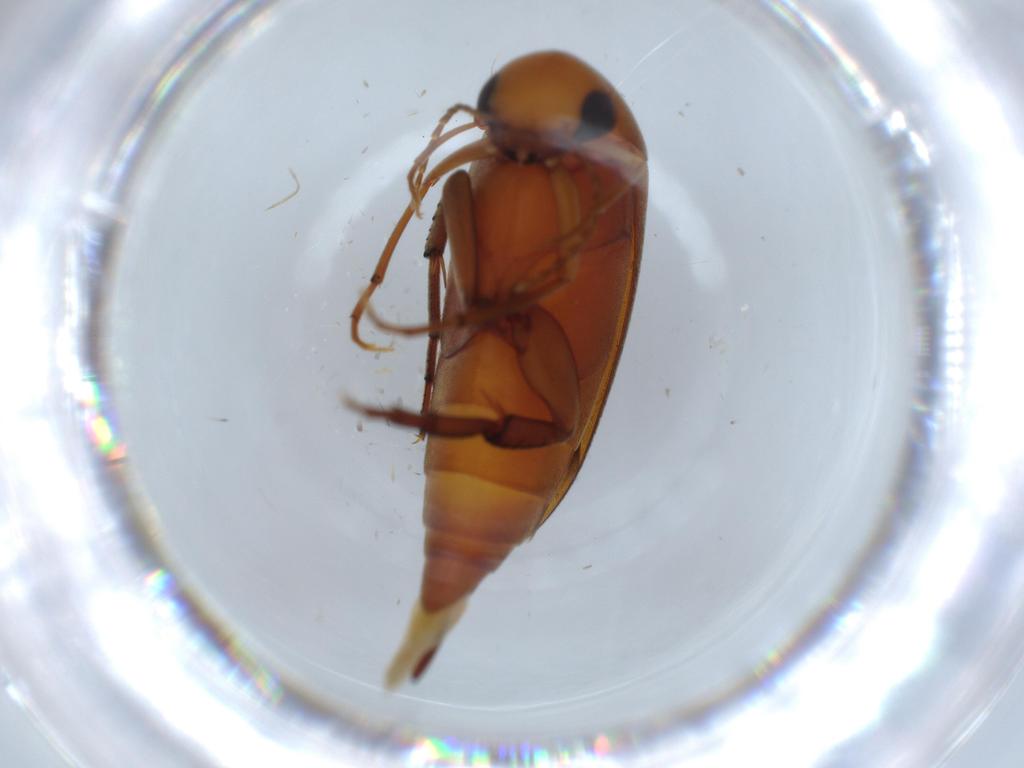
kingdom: Animalia
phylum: Arthropoda
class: Insecta
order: Coleoptera
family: Mordellidae
